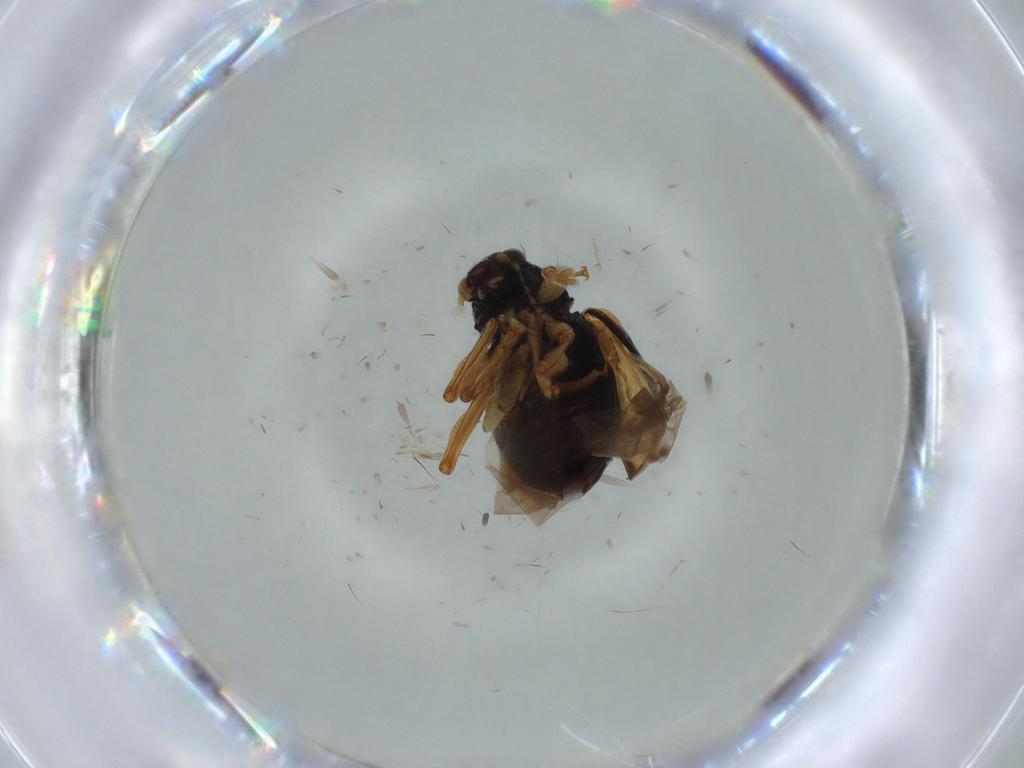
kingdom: Animalia
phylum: Arthropoda
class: Insecta
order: Coleoptera
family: Chrysomelidae
